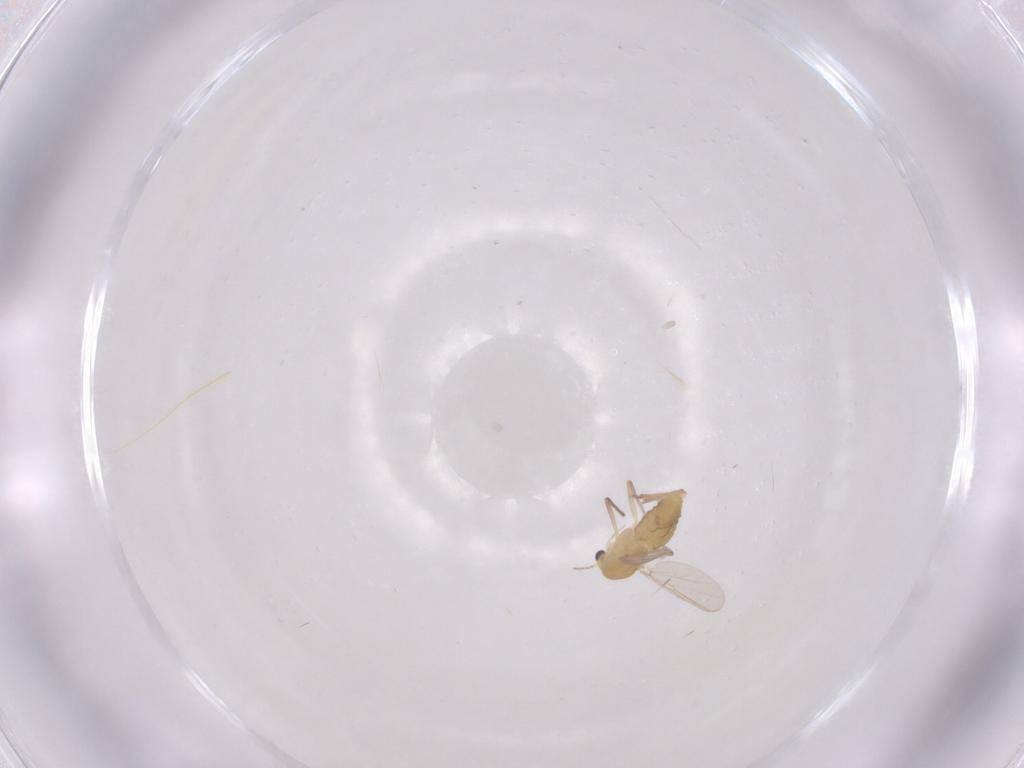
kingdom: Animalia
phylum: Arthropoda
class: Insecta
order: Diptera
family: Chironomidae
